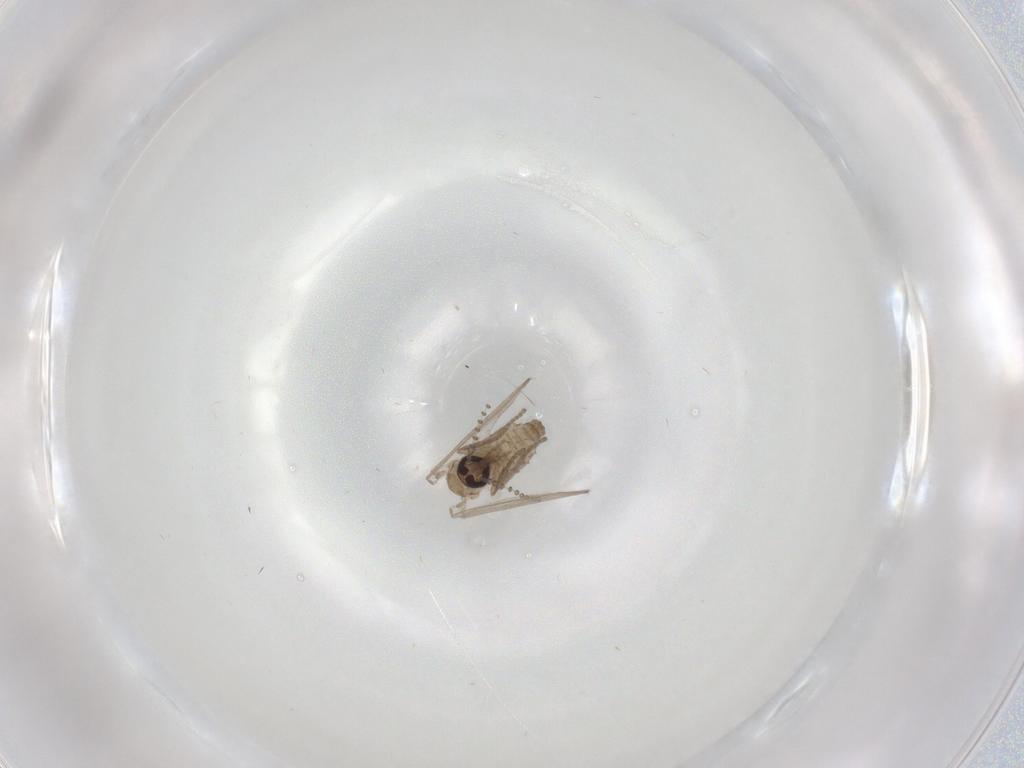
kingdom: Animalia
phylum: Arthropoda
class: Insecta
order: Diptera
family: Psychodidae
